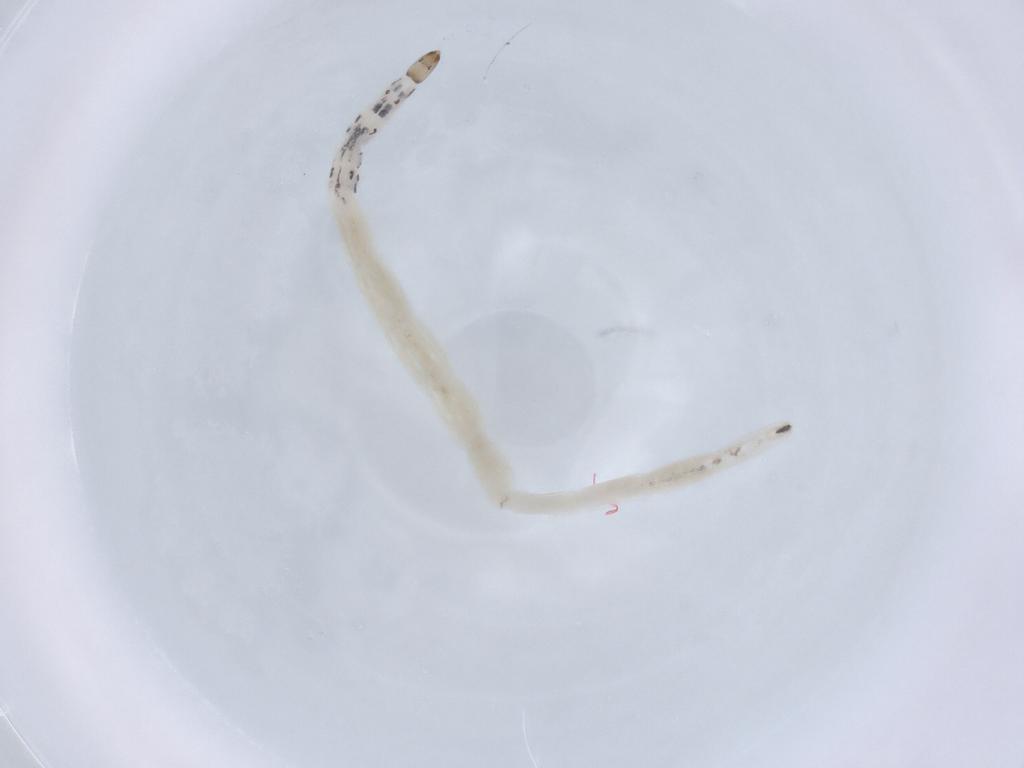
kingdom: Animalia
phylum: Arthropoda
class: Insecta
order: Diptera
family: Ceratopogonidae
